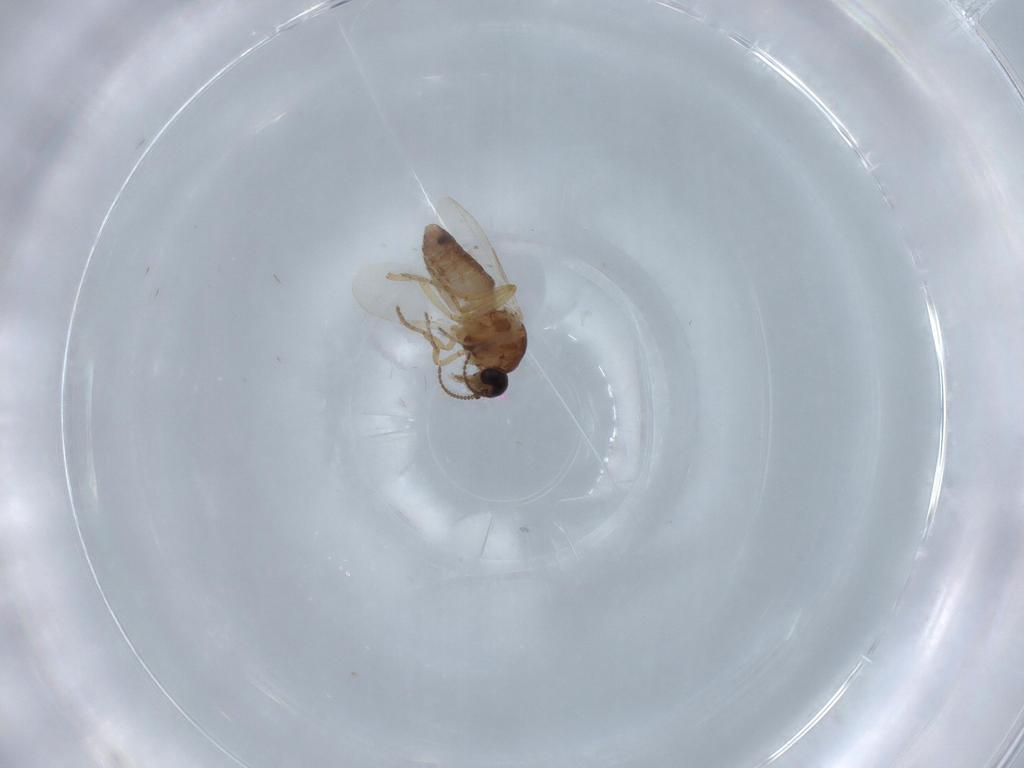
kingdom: Animalia
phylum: Arthropoda
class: Insecta
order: Diptera
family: Ceratopogonidae
